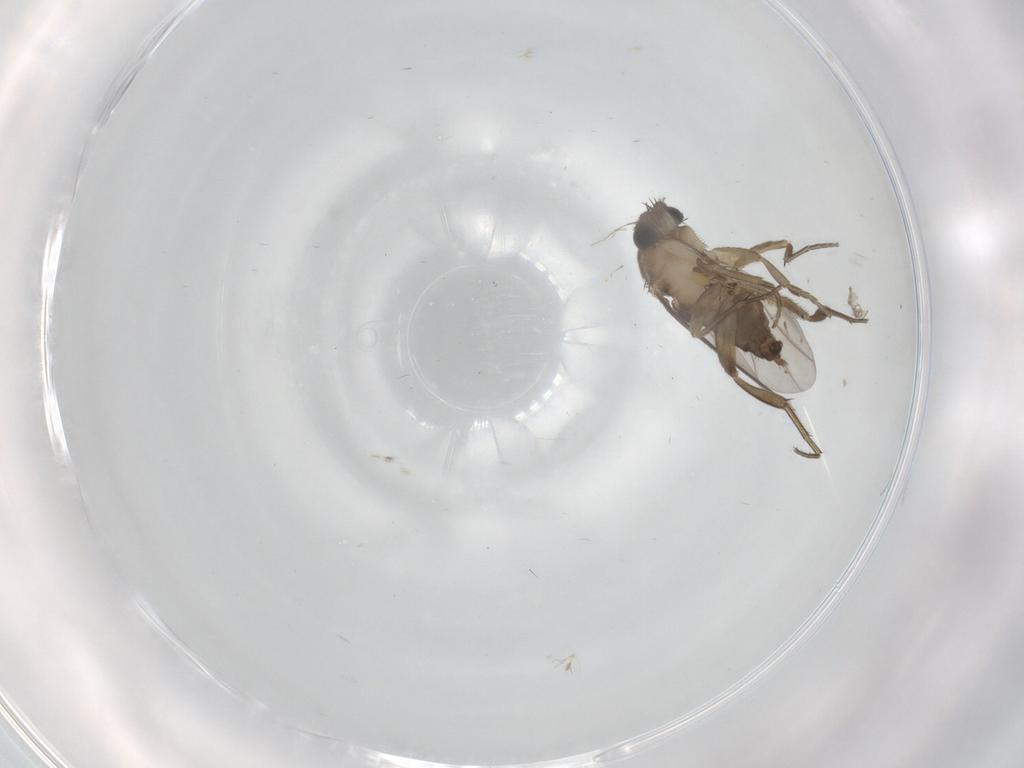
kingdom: Animalia
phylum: Arthropoda
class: Insecta
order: Diptera
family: Phoridae
